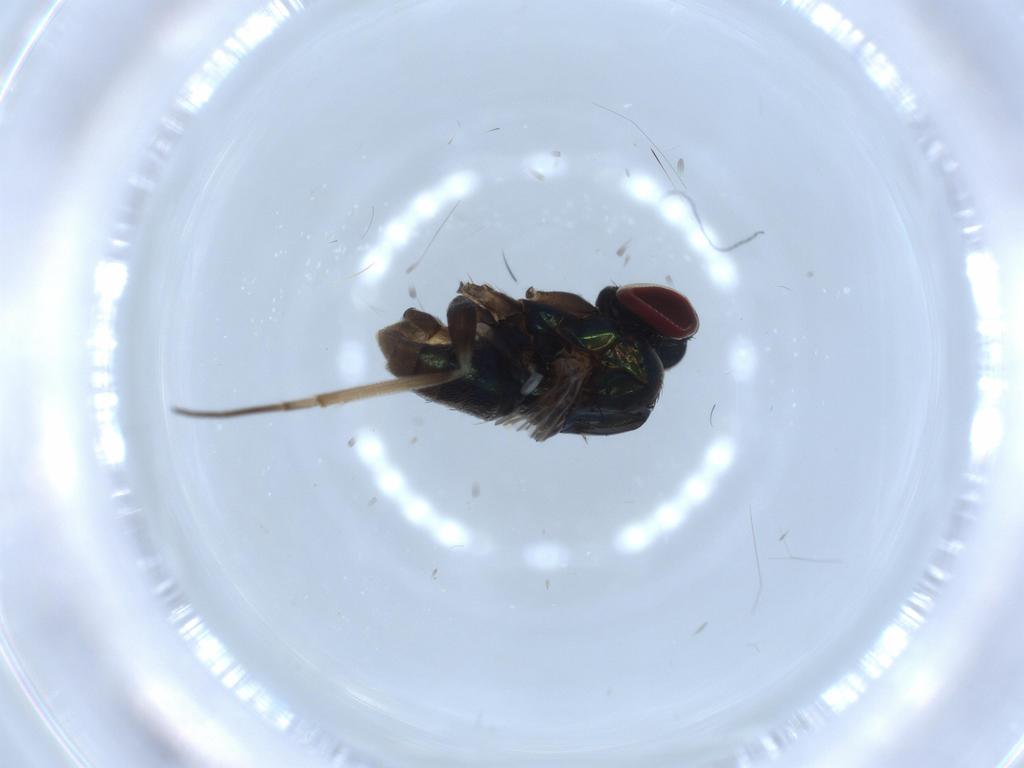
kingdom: Animalia
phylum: Arthropoda
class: Insecta
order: Diptera
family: Dolichopodidae
